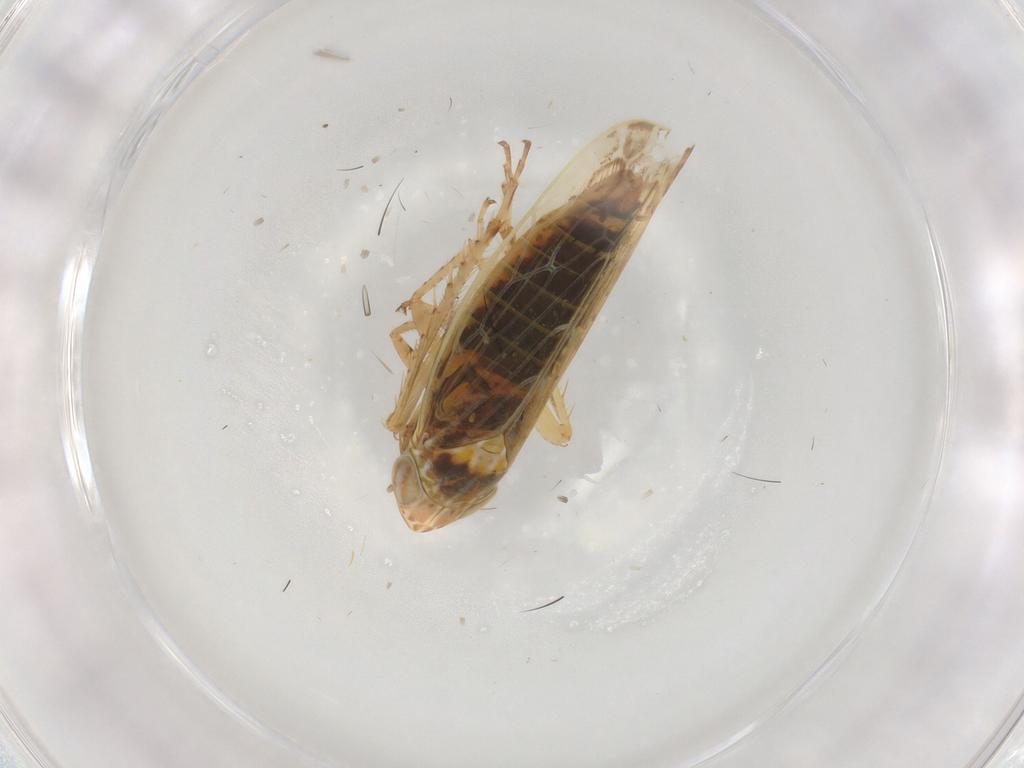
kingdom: Animalia
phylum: Arthropoda
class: Insecta
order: Hemiptera
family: Cicadellidae
